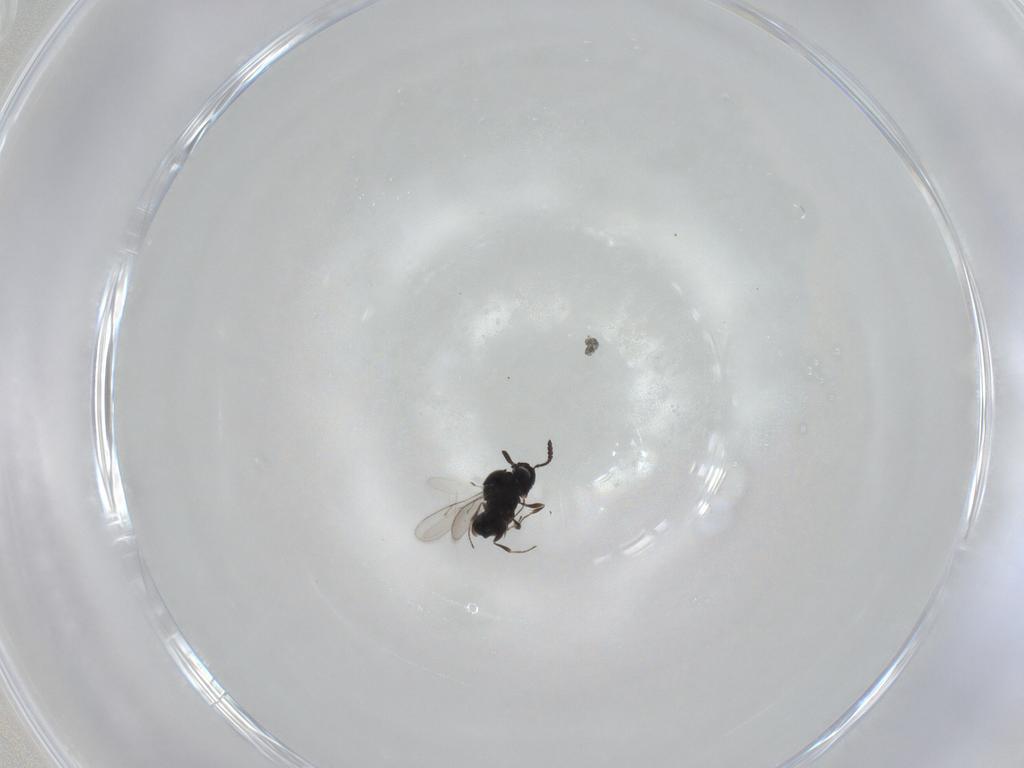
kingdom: Animalia
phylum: Arthropoda
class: Insecta
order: Hymenoptera
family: Scelionidae
